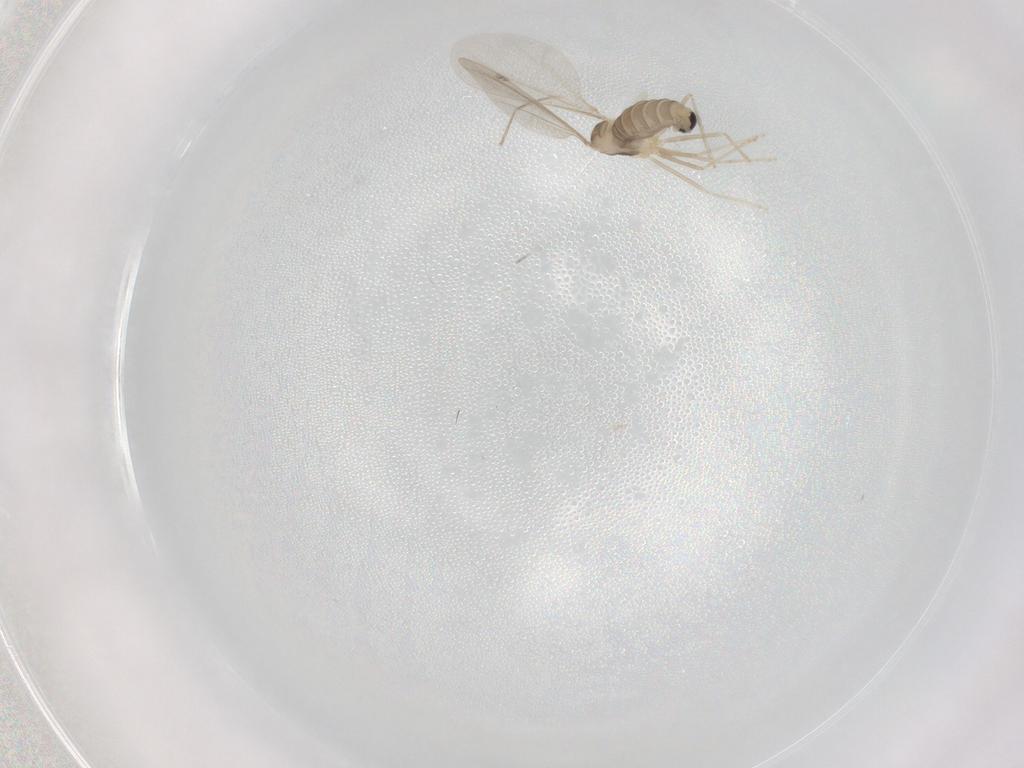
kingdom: Animalia
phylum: Arthropoda
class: Insecta
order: Diptera
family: Cecidomyiidae
